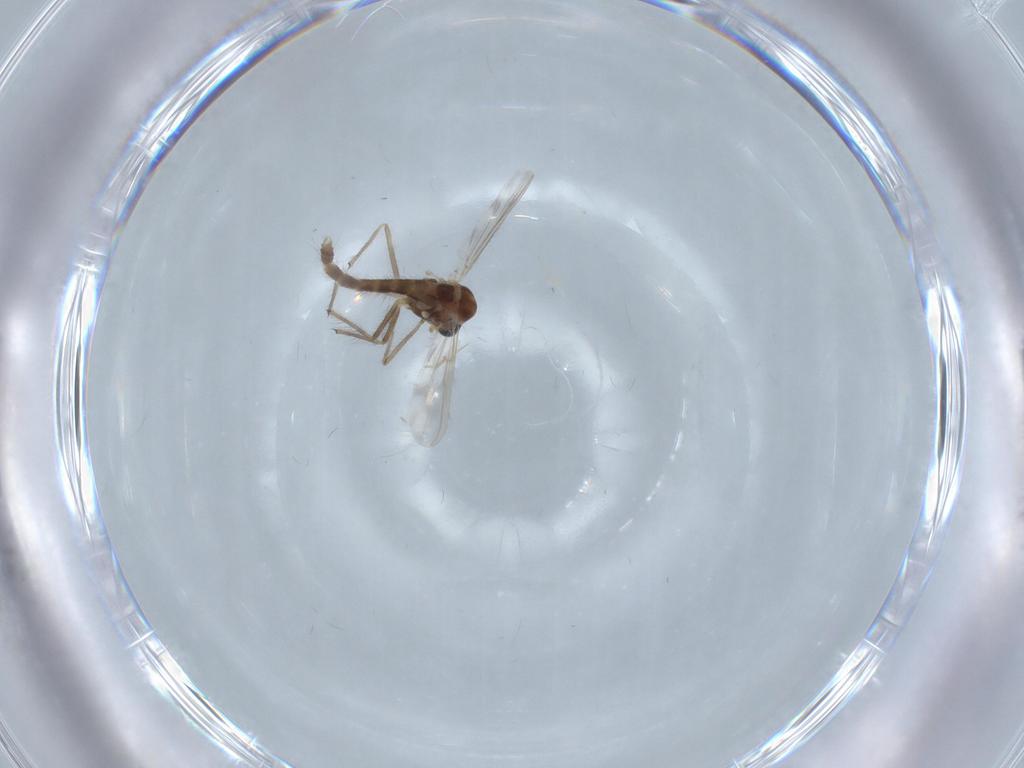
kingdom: Animalia
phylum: Arthropoda
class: Insecta
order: Diptera
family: Chironomidae
